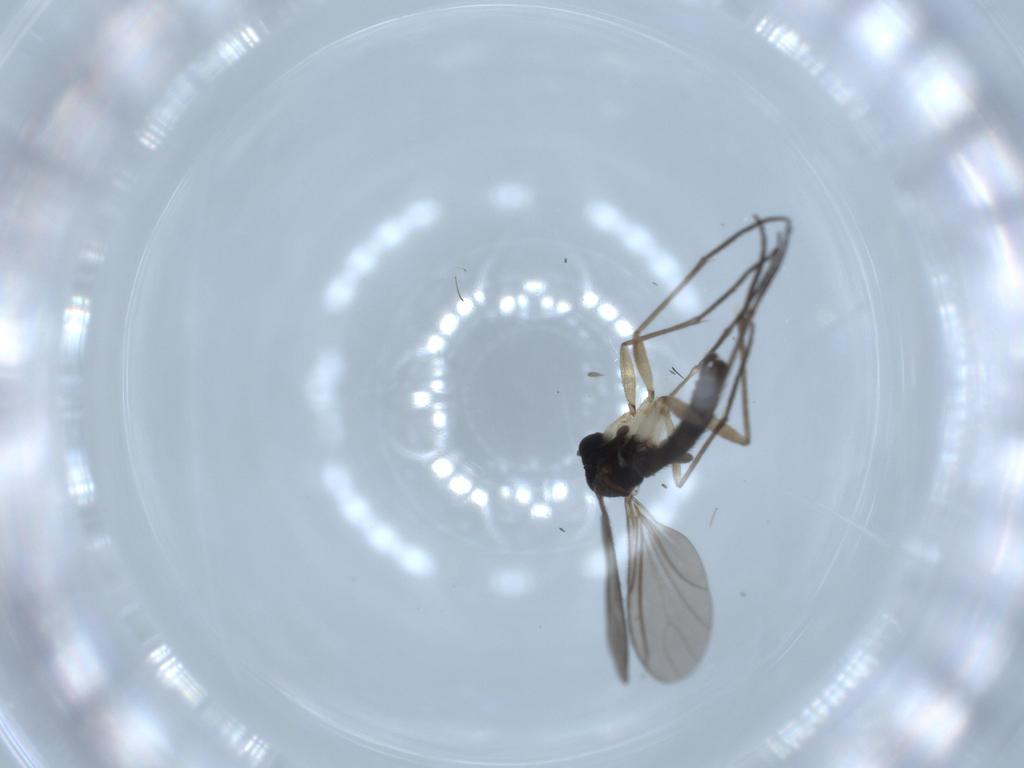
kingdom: Animalia
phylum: Arthropoda
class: Insecta
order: Diptera
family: Sciaridae
